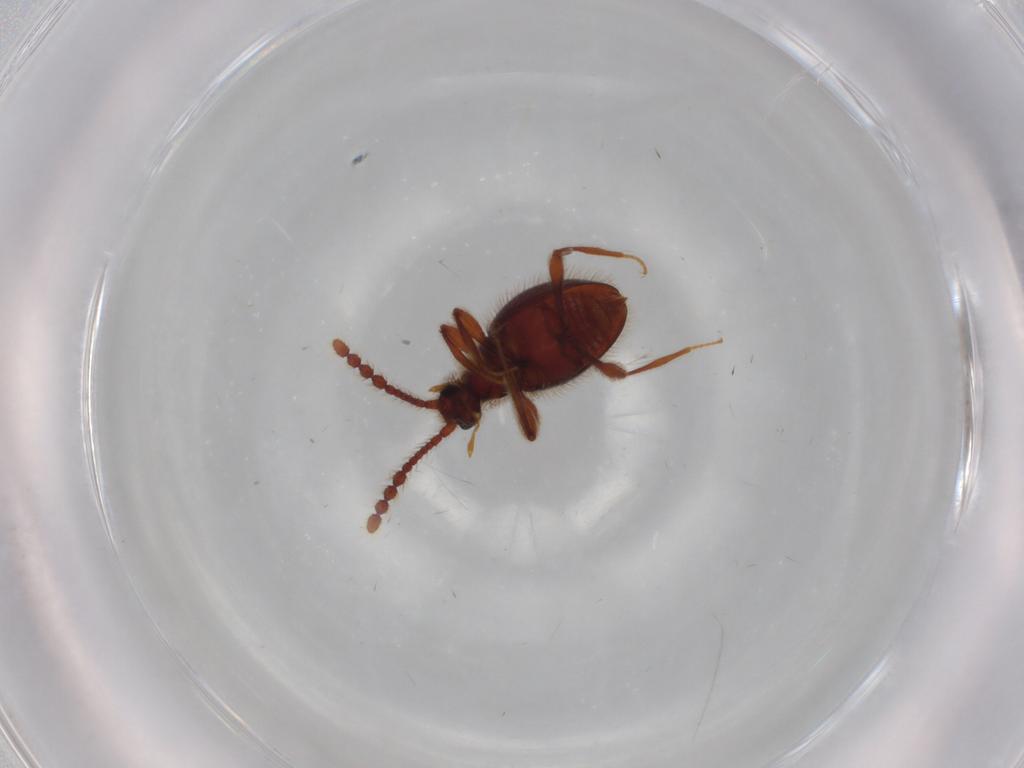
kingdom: Animalia
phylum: Arthropoda
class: Insecta
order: Coleoptera
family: Staphylinidae
